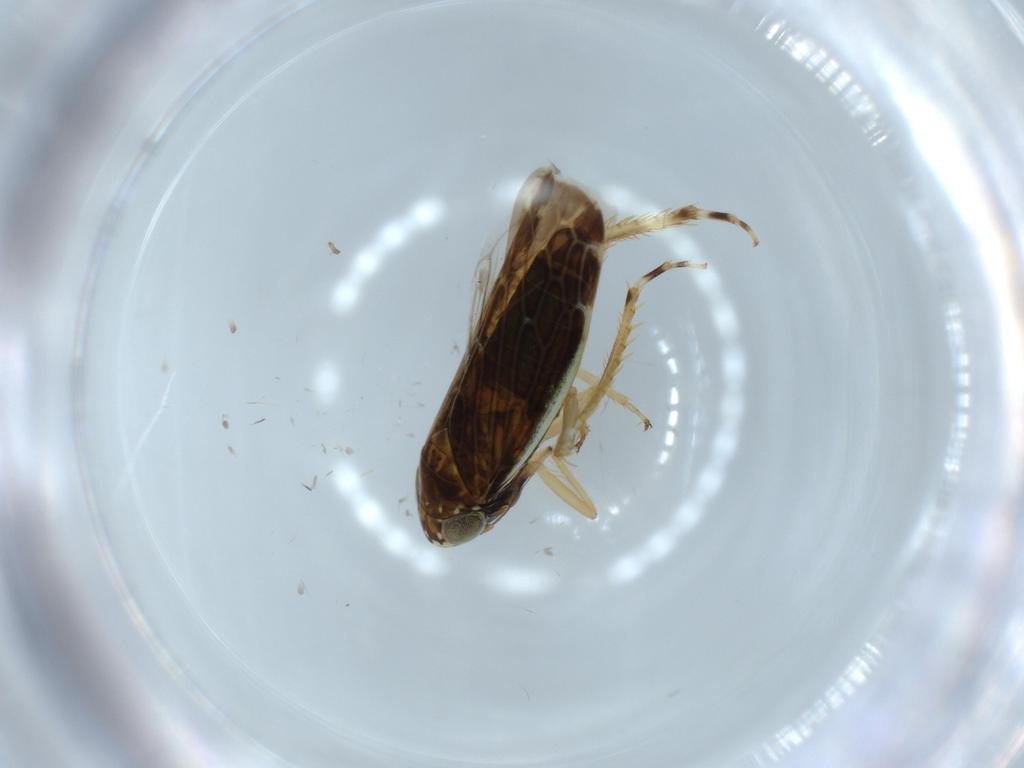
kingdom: Animalia
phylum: Arthropoda
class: Insecta
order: Hemiptera
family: Cicadellidae
